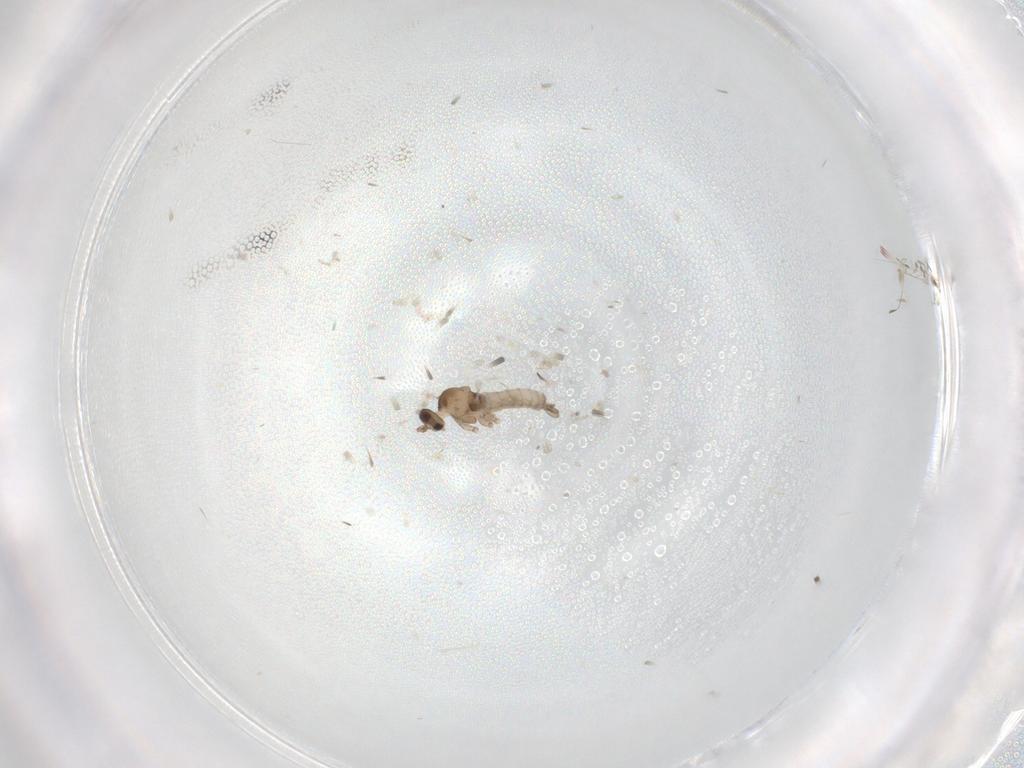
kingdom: Animalia
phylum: Arthropoda
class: Insecta
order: Diptera
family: Cecidomyiidae
